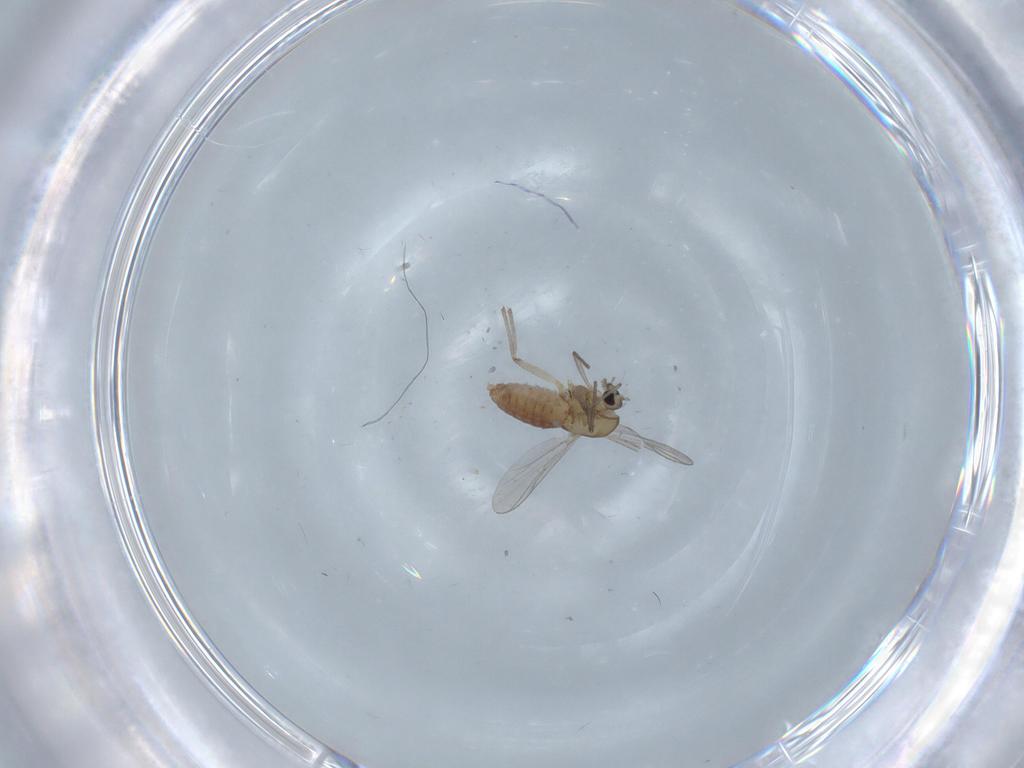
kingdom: Animalia
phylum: Arthropoda
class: Insecta
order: Diptera
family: Chironomidae
